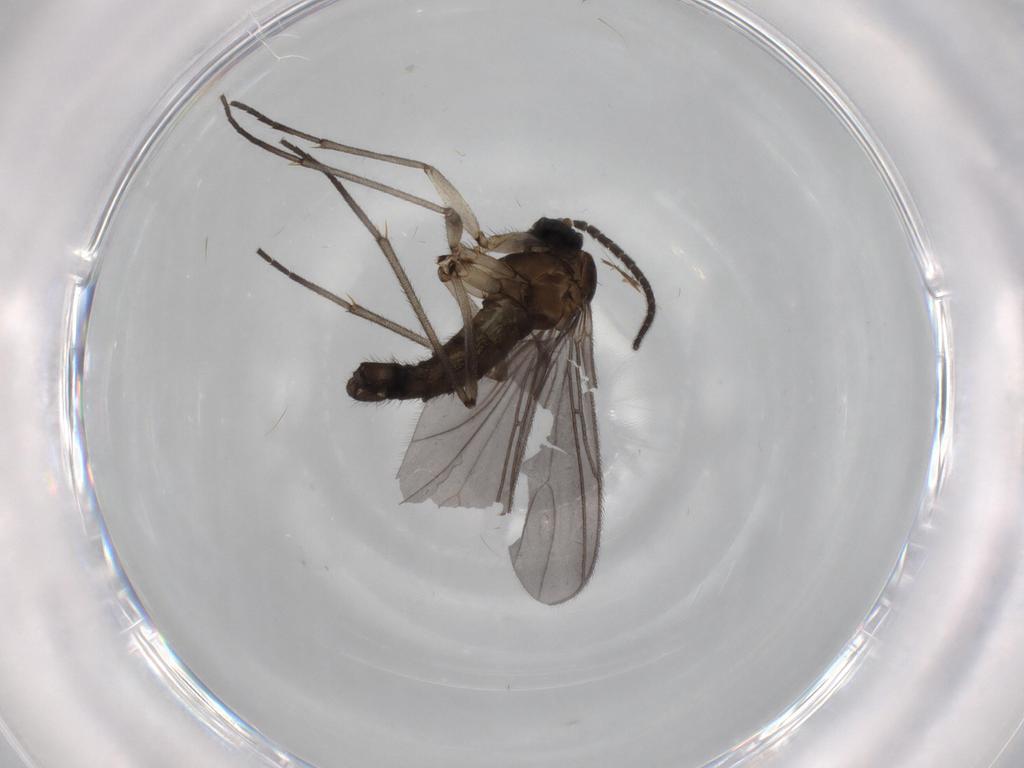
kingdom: Animalia
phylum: Arthropoda
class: Insecta
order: Diptera
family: Sciaridae
